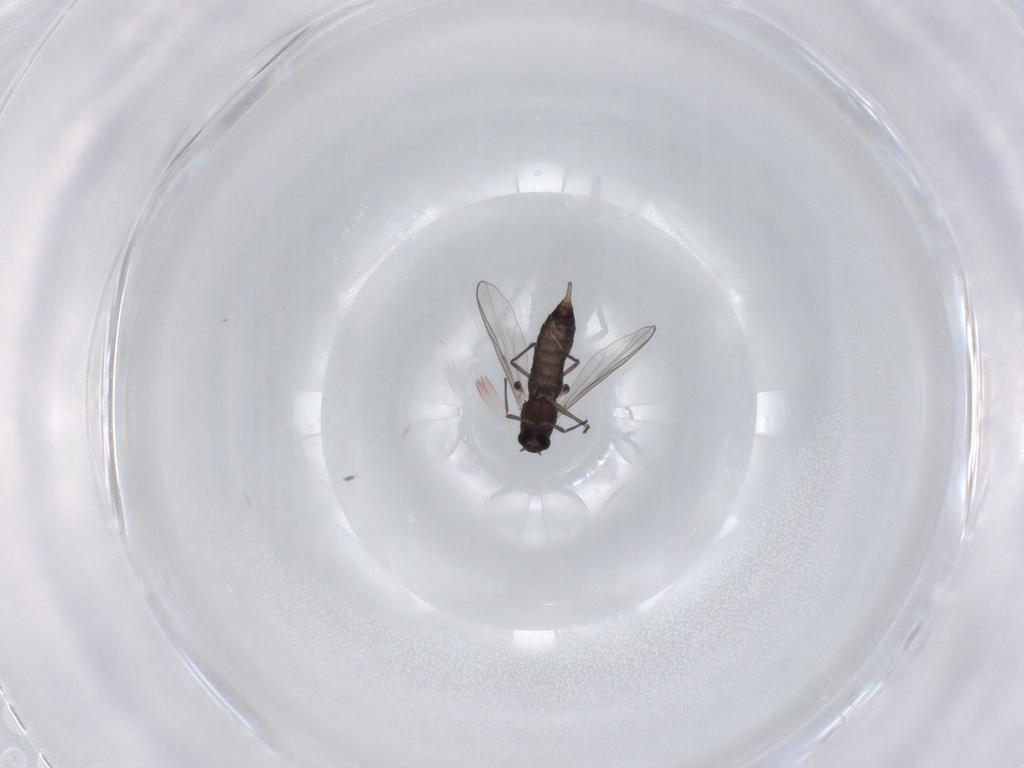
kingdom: Animalia
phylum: Arthropoda
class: Insecta
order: Diptera
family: Chironomidae
